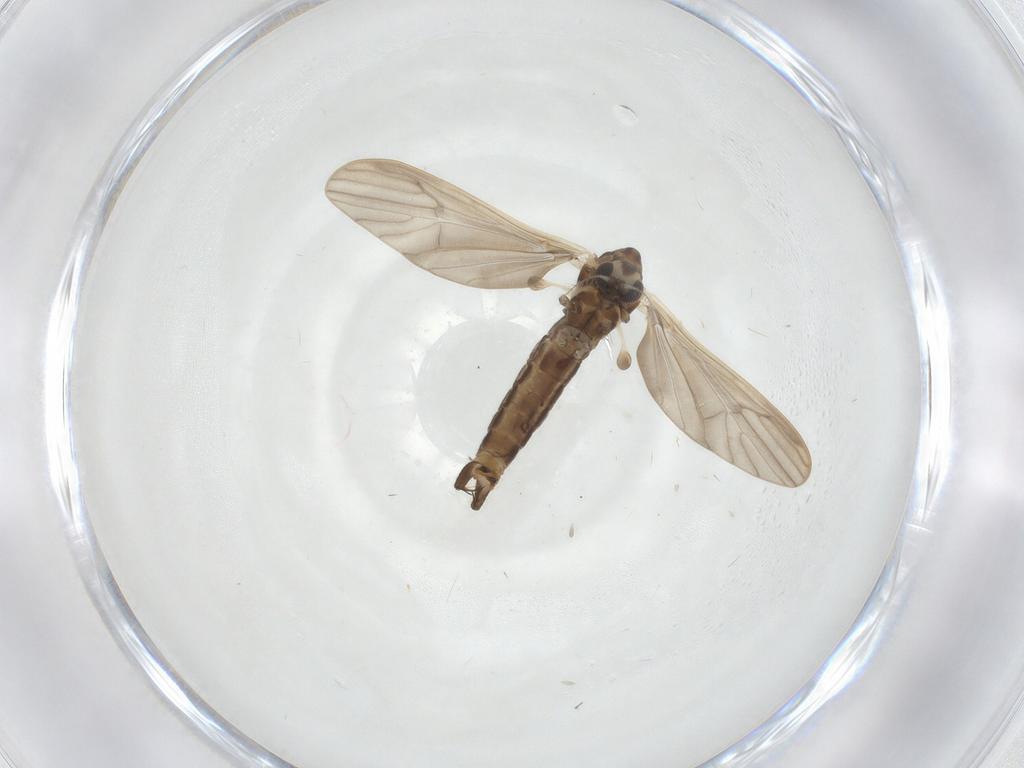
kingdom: Animalia
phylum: Arthropoda
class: Insecta
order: Diptera
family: Limoniidae
